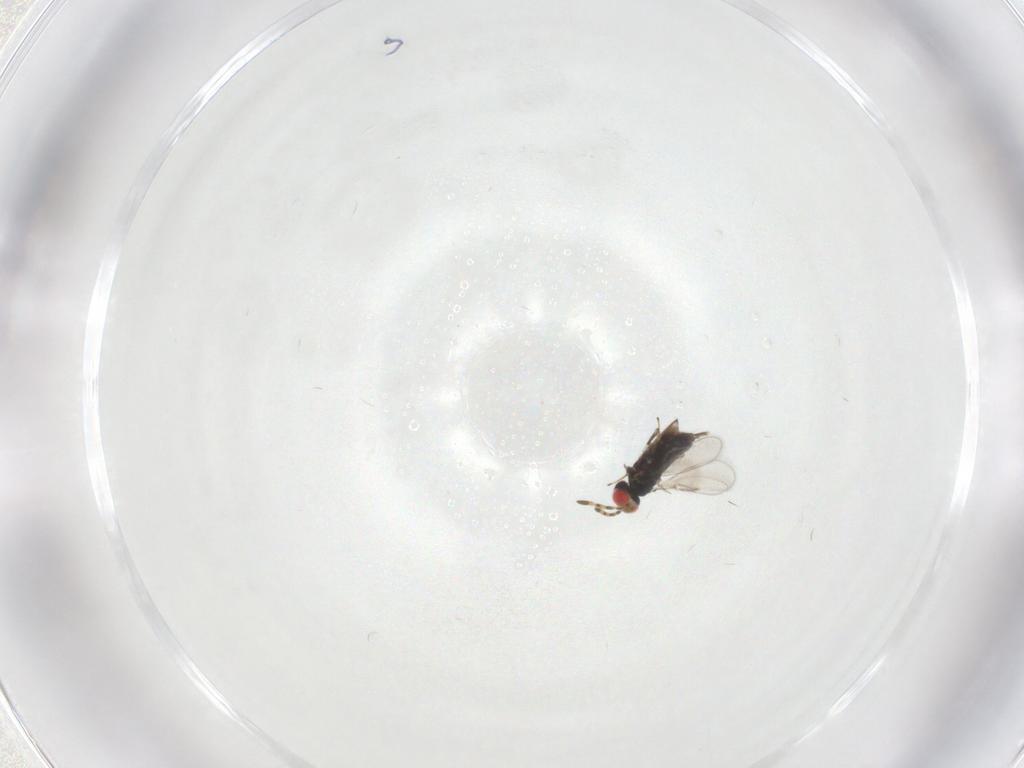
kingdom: Animalia
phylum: Arthropoda
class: Insecta
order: Hymenoptera
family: Azotidae
